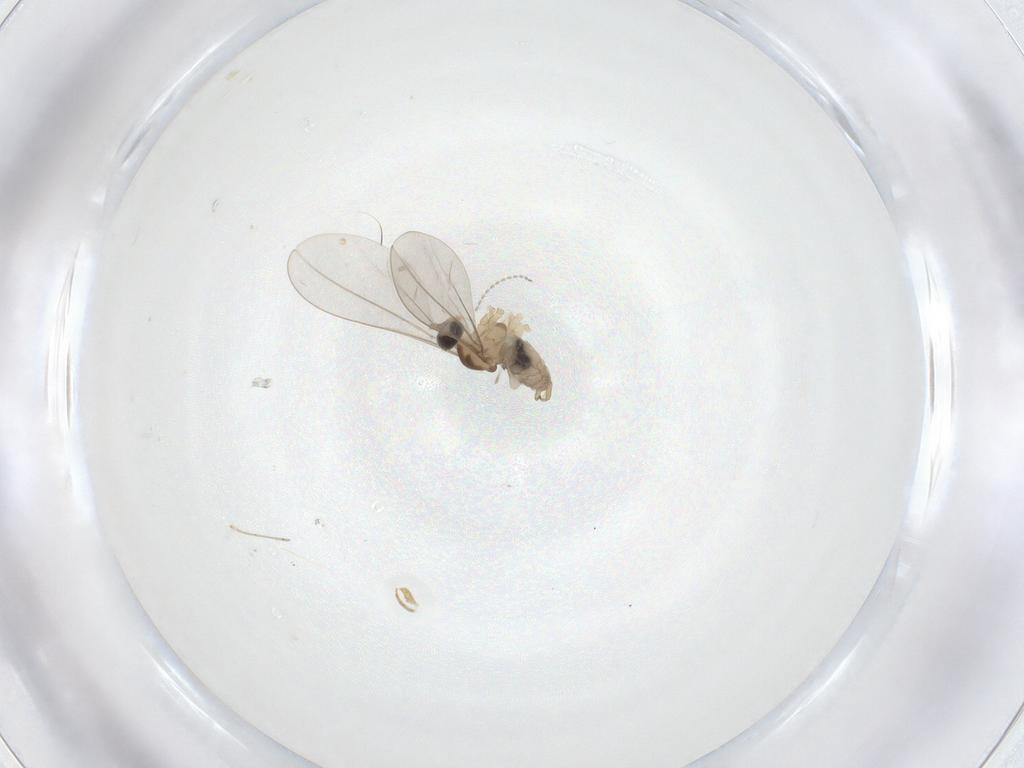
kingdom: Animalia
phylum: Arthropoda
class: Insecta
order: Diptera
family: Cecidomyiidae
